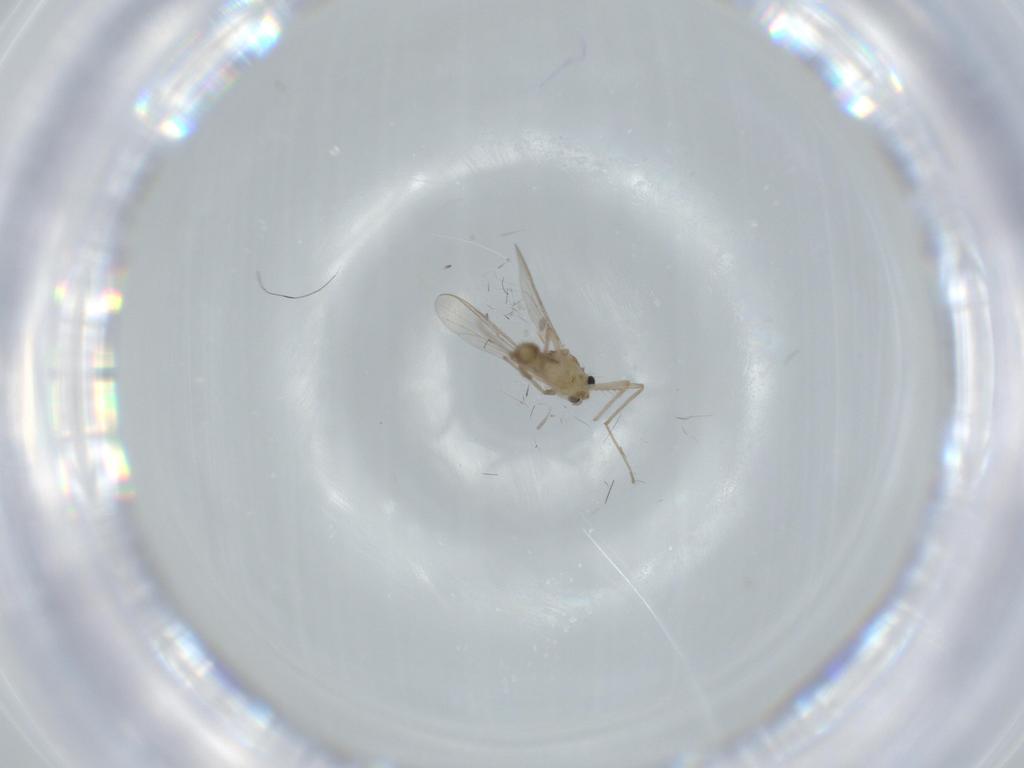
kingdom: Animalia
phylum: Arthropoda
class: Insecta
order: Diptera
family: Chironomidae
